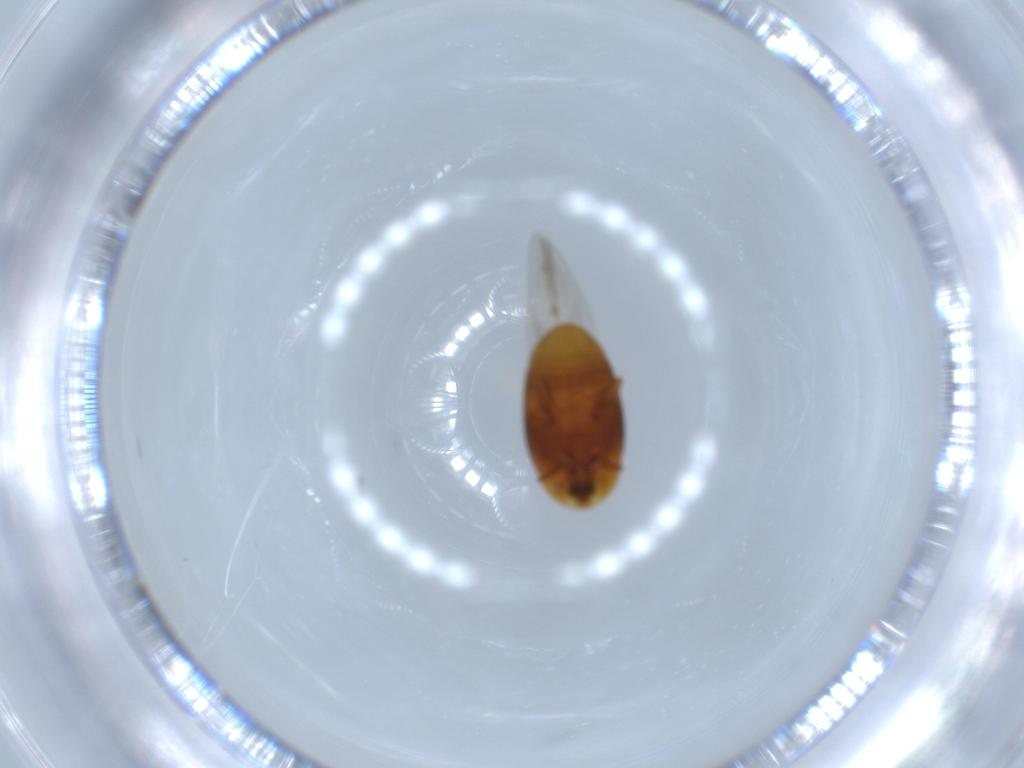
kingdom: Animalia
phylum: Arthropoda
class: Insecta
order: Coleoptera
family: Corylophidae
